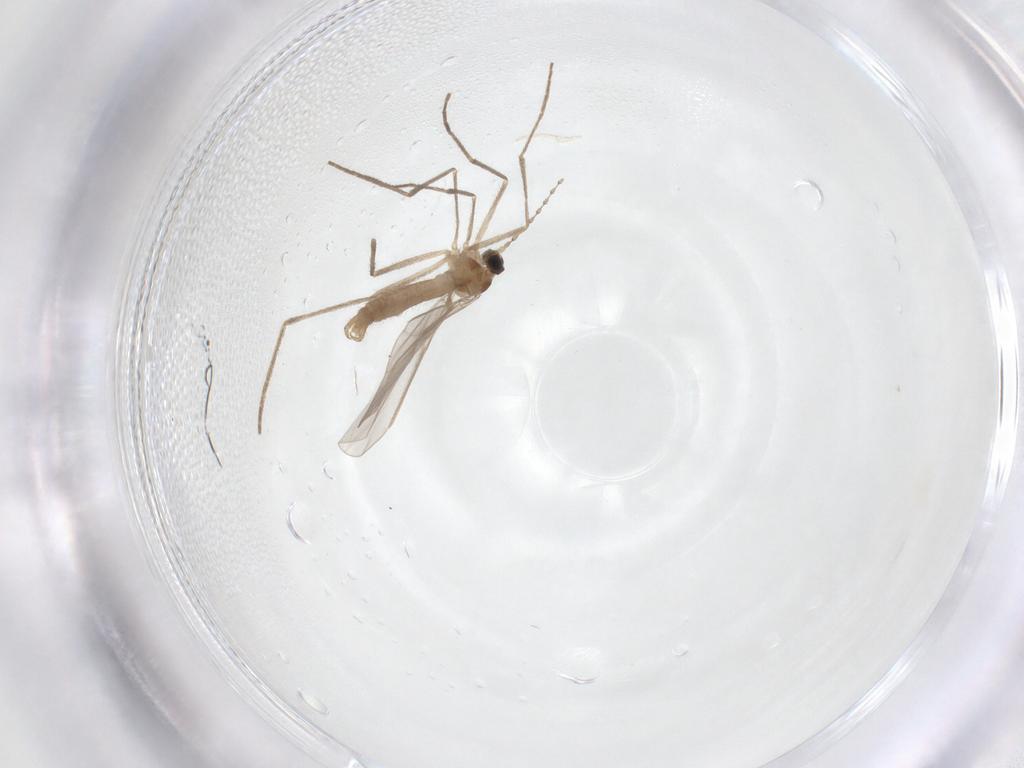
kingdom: Animalia
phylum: Arthropoda
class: Insecta
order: Diptera
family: Cecidomyiidae
